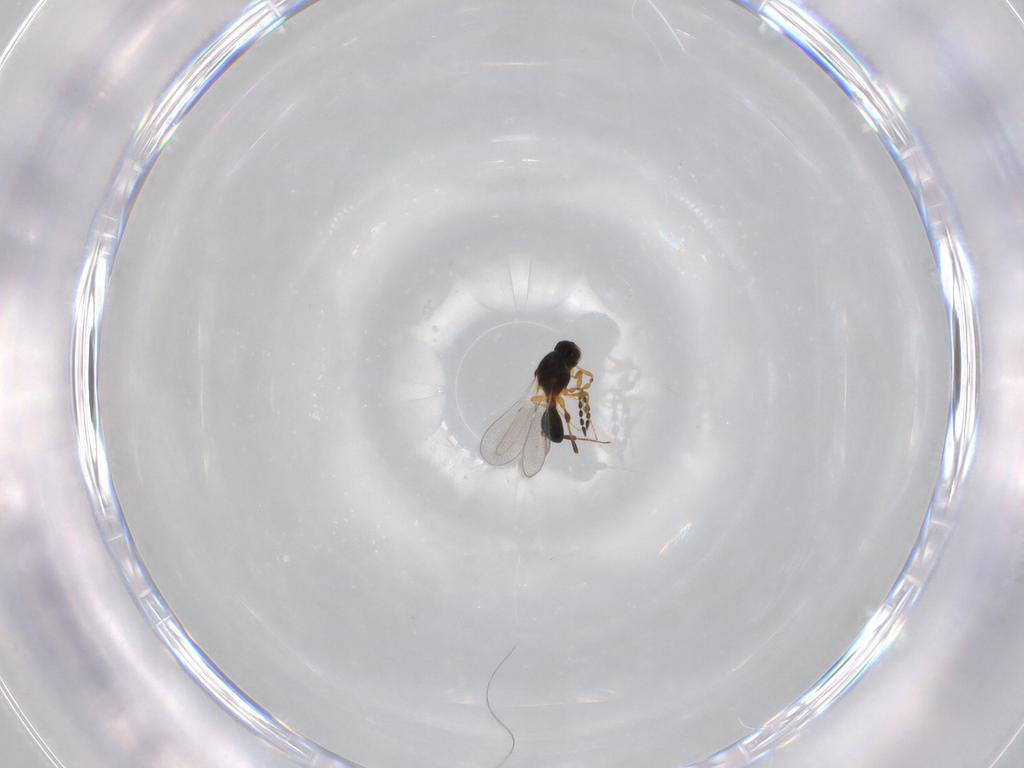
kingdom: Animalia
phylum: Arthropoda
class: Insecta
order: Hymenoptera
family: Platygastridae
